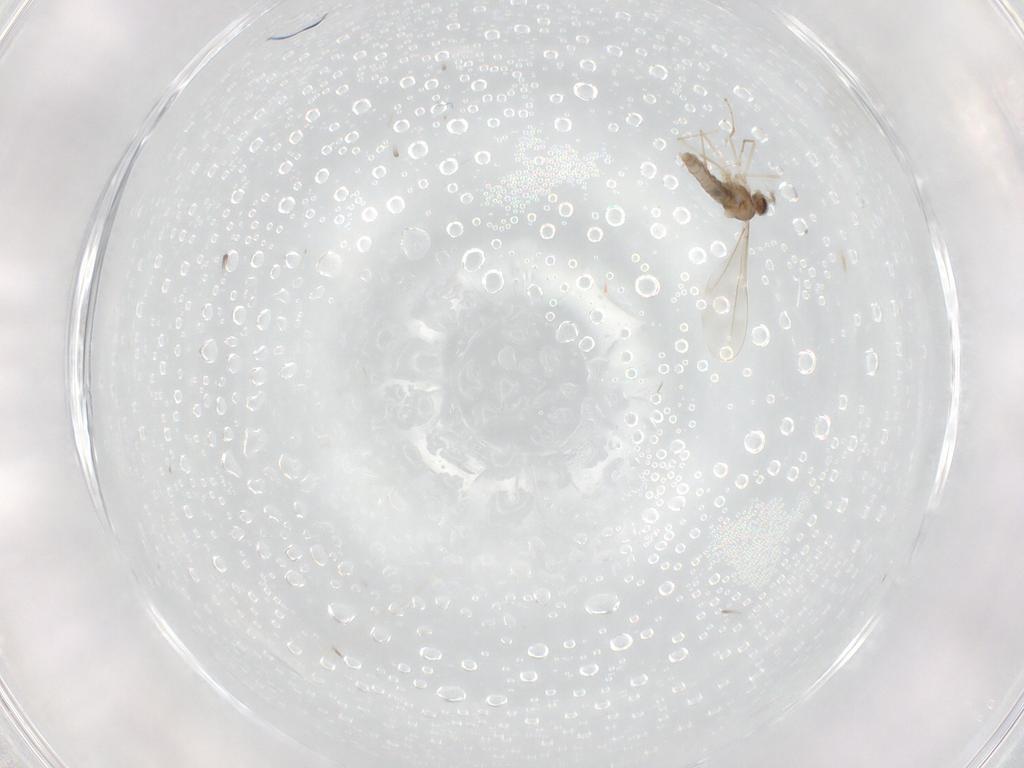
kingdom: Animalia
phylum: Arthropoda
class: Insecta
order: Diptera
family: Cecidomyiidae
